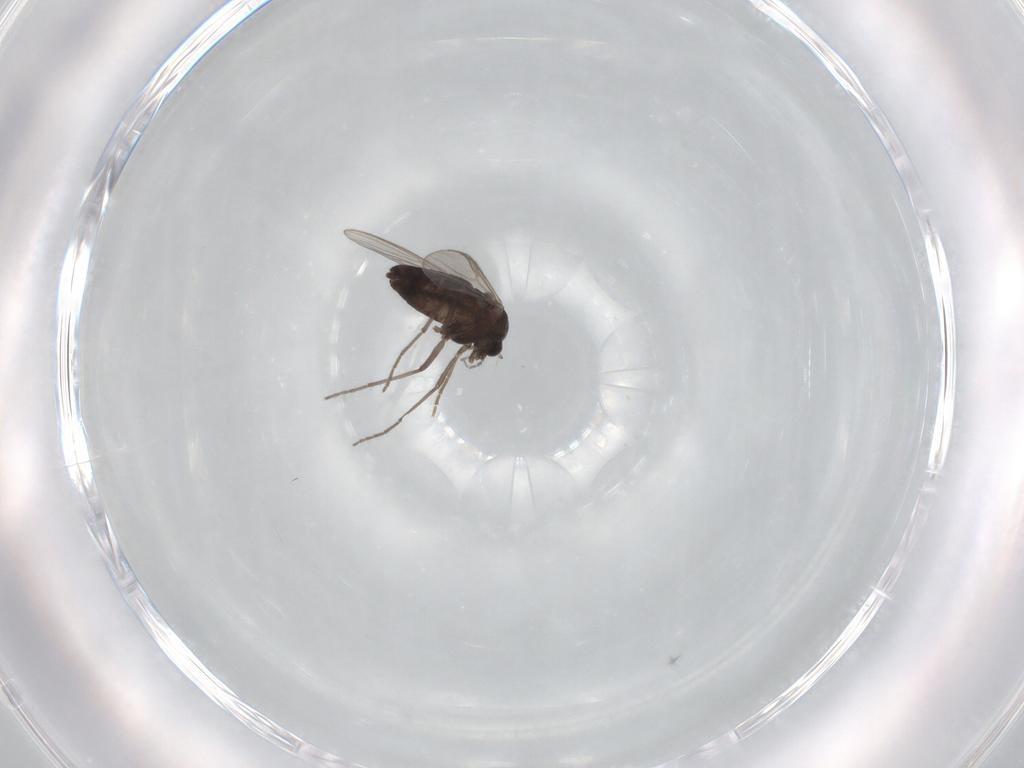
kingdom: Animalia
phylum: Arthropoda
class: Insecta
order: Diptera
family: Chironomidae
